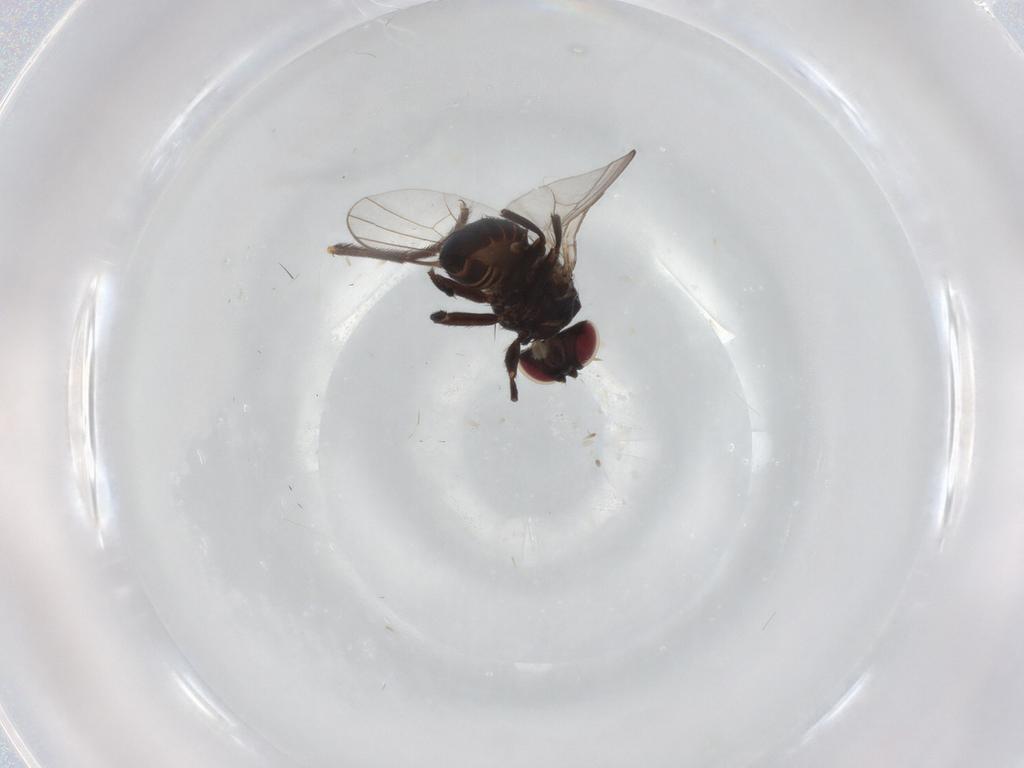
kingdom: Animalia
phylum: Arthropoda
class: Insecta
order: Diptera
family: Agromyzidae
